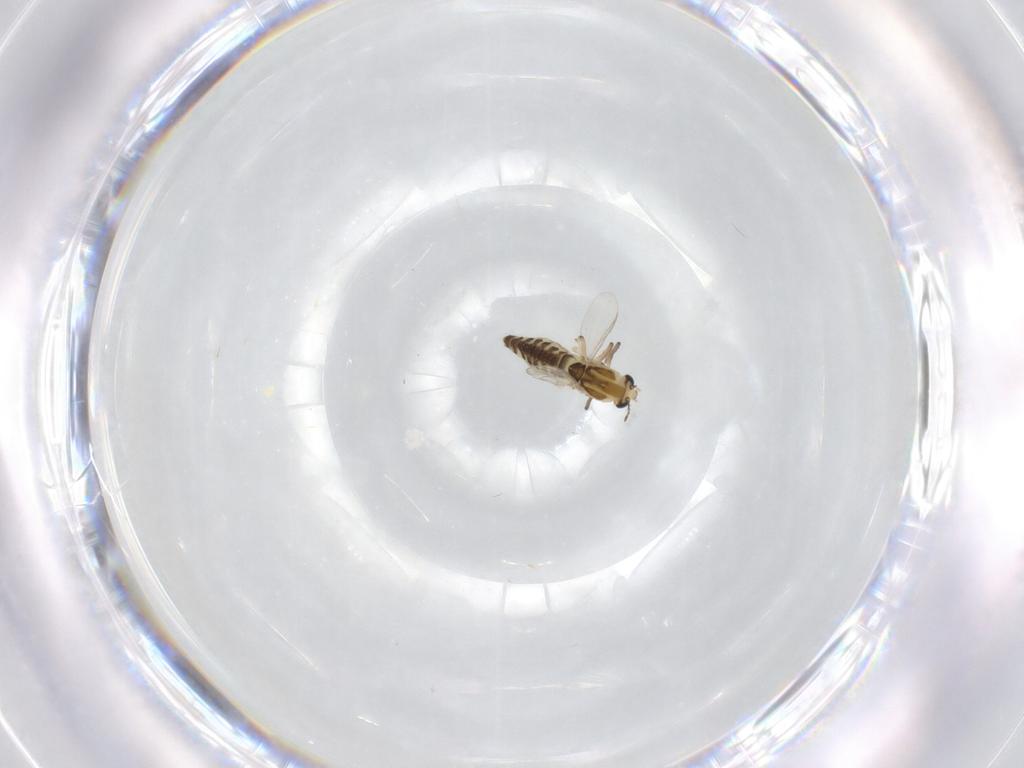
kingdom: Animalia
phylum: Arthropoda
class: Insecta
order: Diptera
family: Chironomidae
